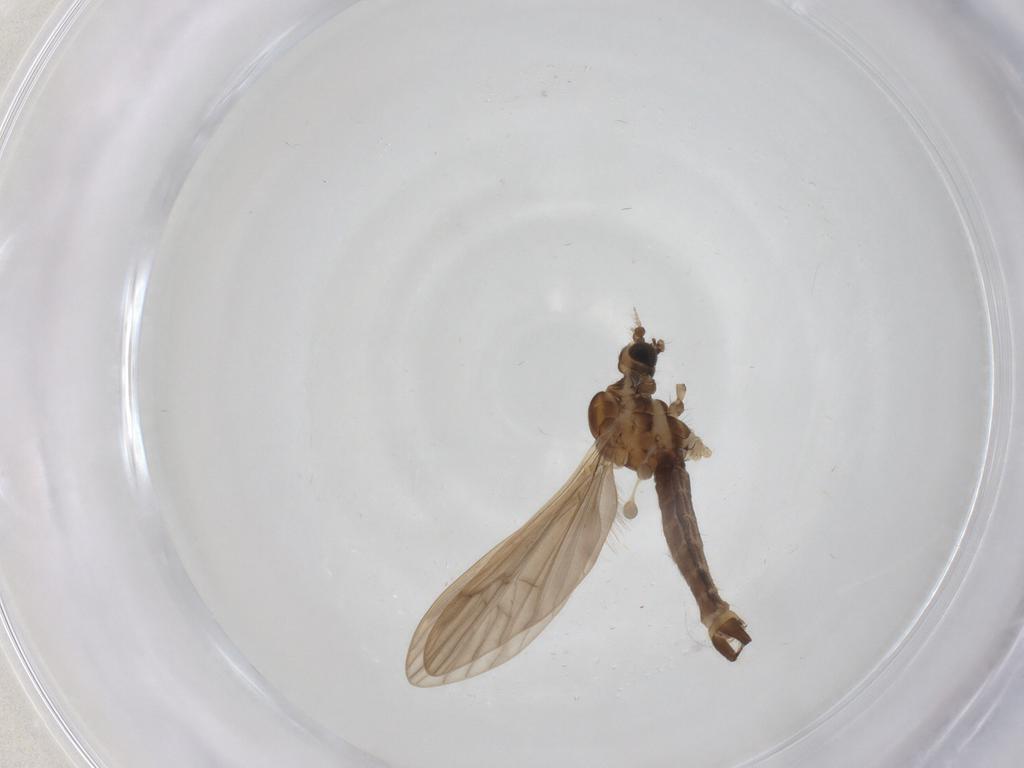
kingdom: Animalia
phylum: Arthropoda
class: Insecta
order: Diptera
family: Limoniidae
